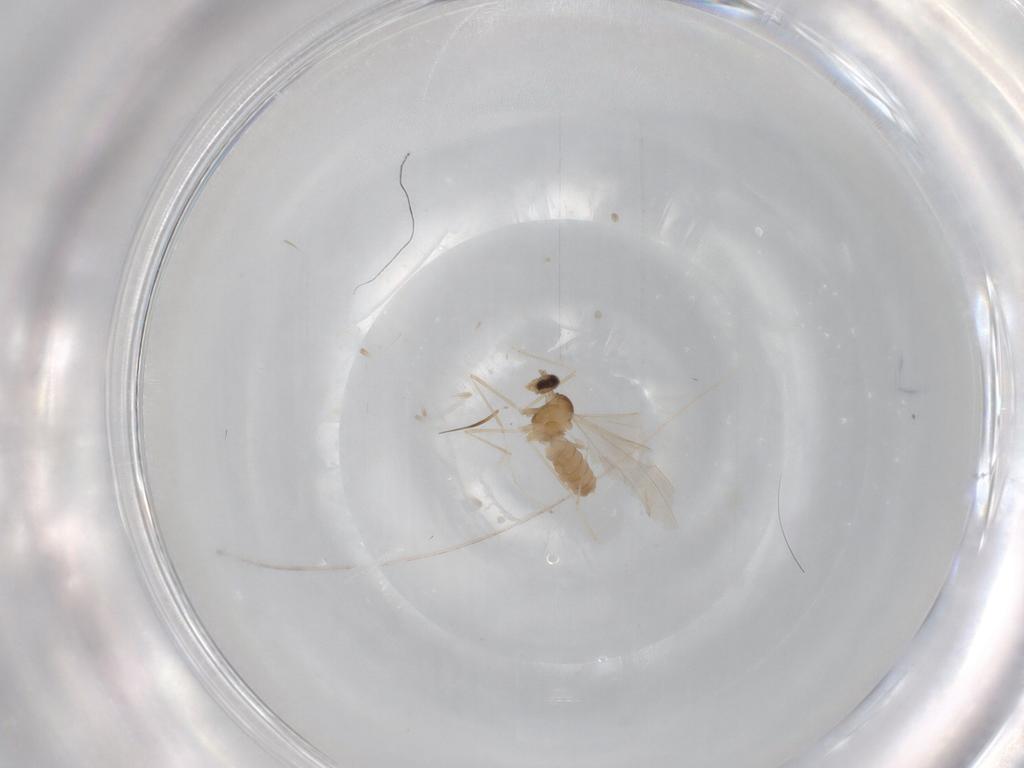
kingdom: Animalia
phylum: Arthropoda
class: Insecta
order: Diptera
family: Cecidomyiidae
